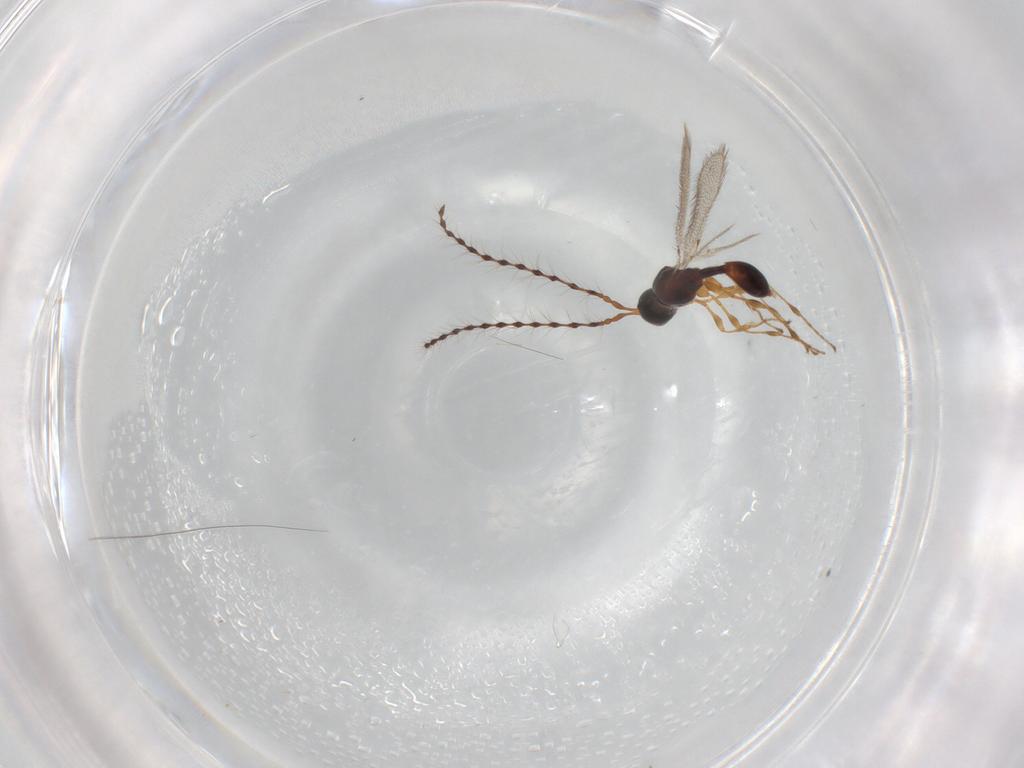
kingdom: Animalia
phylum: Arthropoda
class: Insecta
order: Hymenoptera
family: Diapriidae
